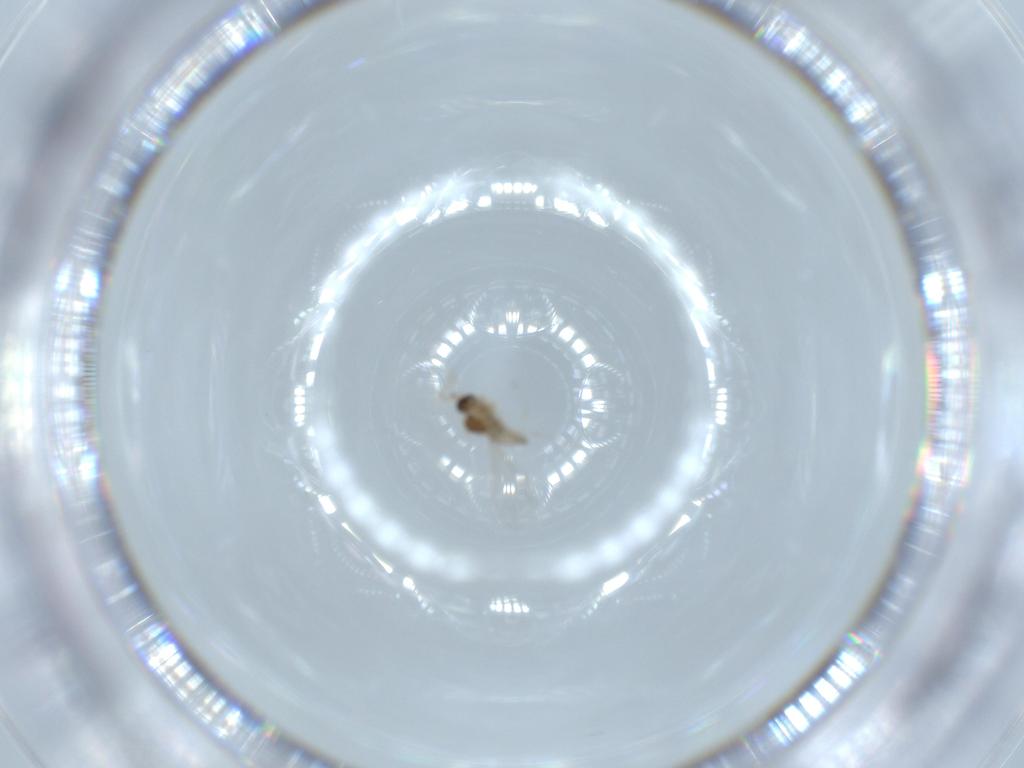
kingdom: Animalia
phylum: Arthropoda
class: Insecta
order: Diptera
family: Cecidomyiidae
